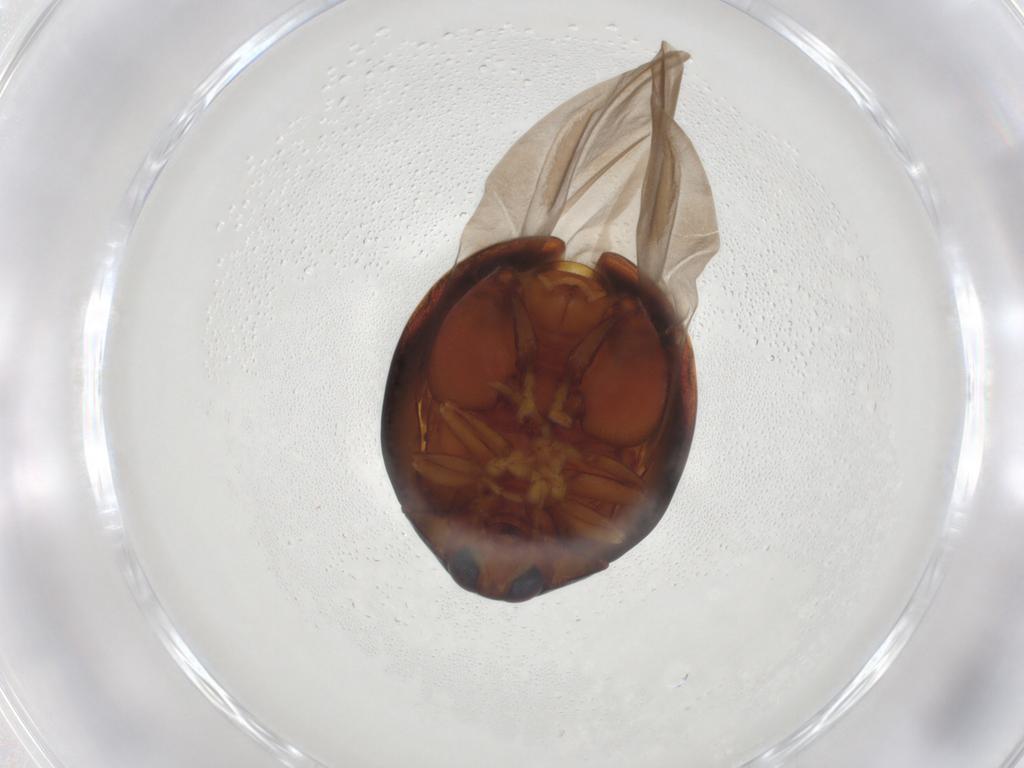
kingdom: Animalia
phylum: Arthropoda
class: Insecta
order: Coleoptera
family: Chrysomelidae
